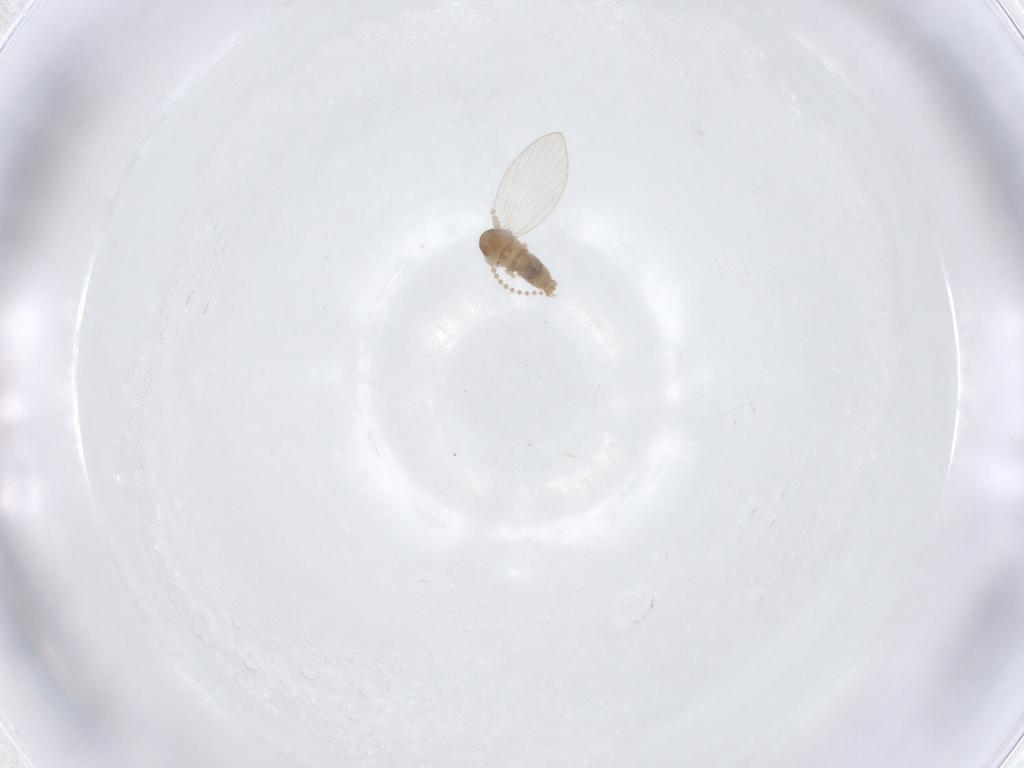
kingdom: Animalia
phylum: Arthropoda
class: Insecta
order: Diptera
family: Psychodidae
